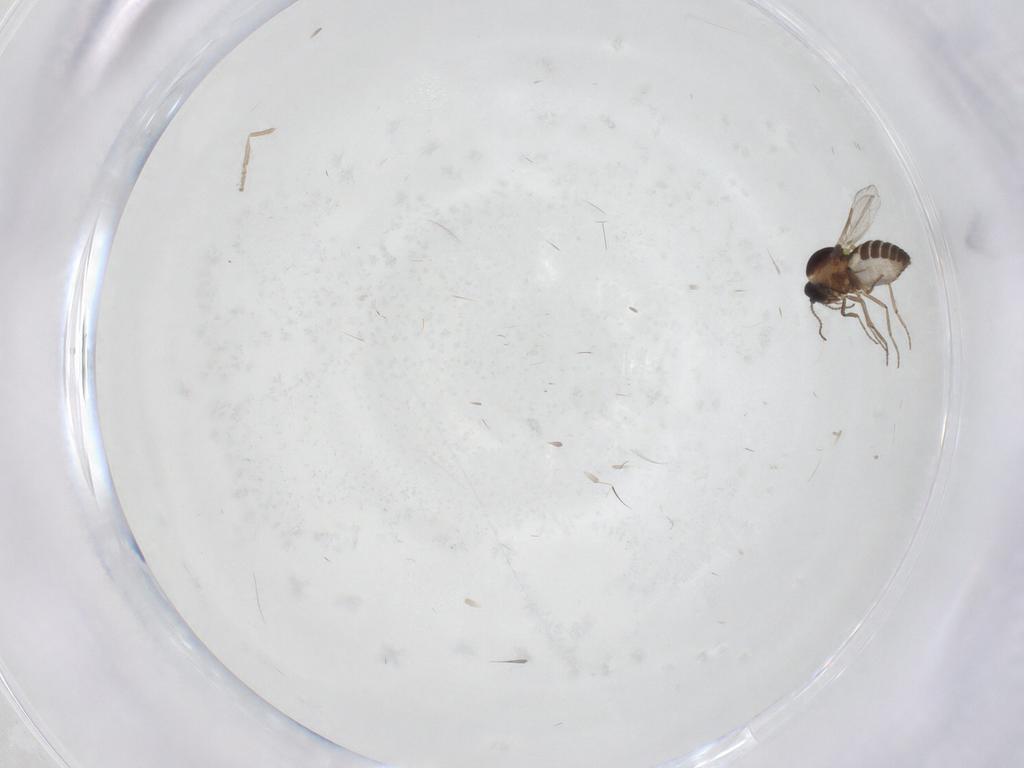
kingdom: Animalia
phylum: Arthropoda
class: Insecta
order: Diptera
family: Psychodidae
